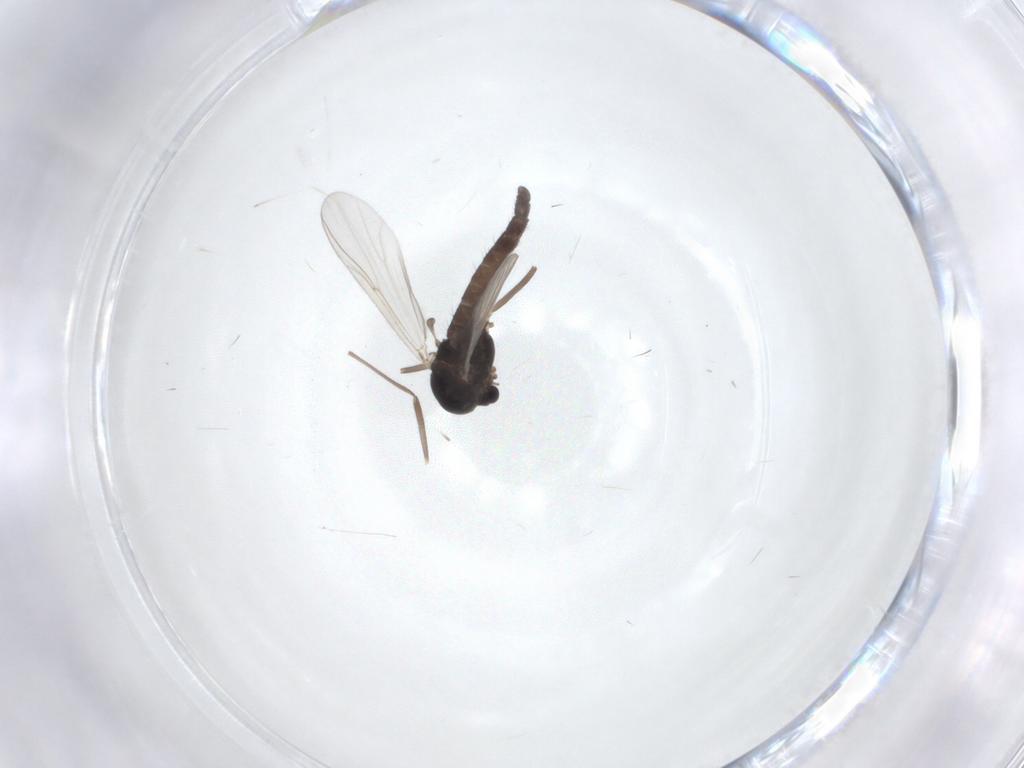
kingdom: Animalia
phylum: Arthropoda
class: Insecta
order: Diptera
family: Chironomidae
